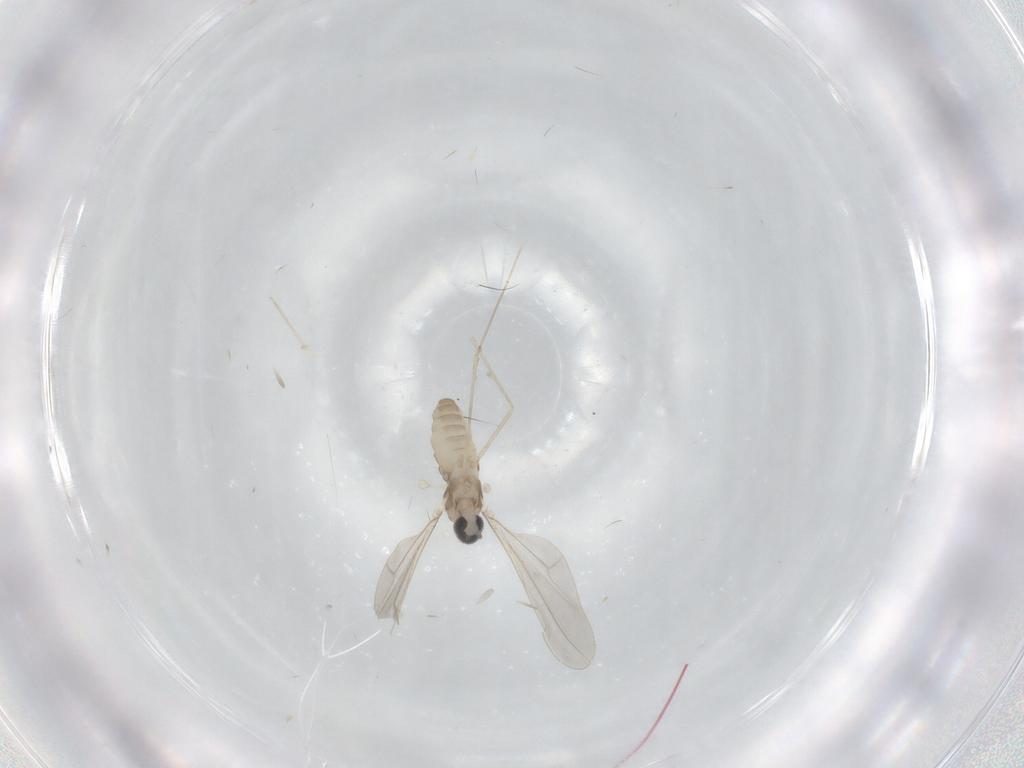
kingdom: Animalia
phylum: Arthropoda
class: Insecta
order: Diptera
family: Cecidomyiidae
